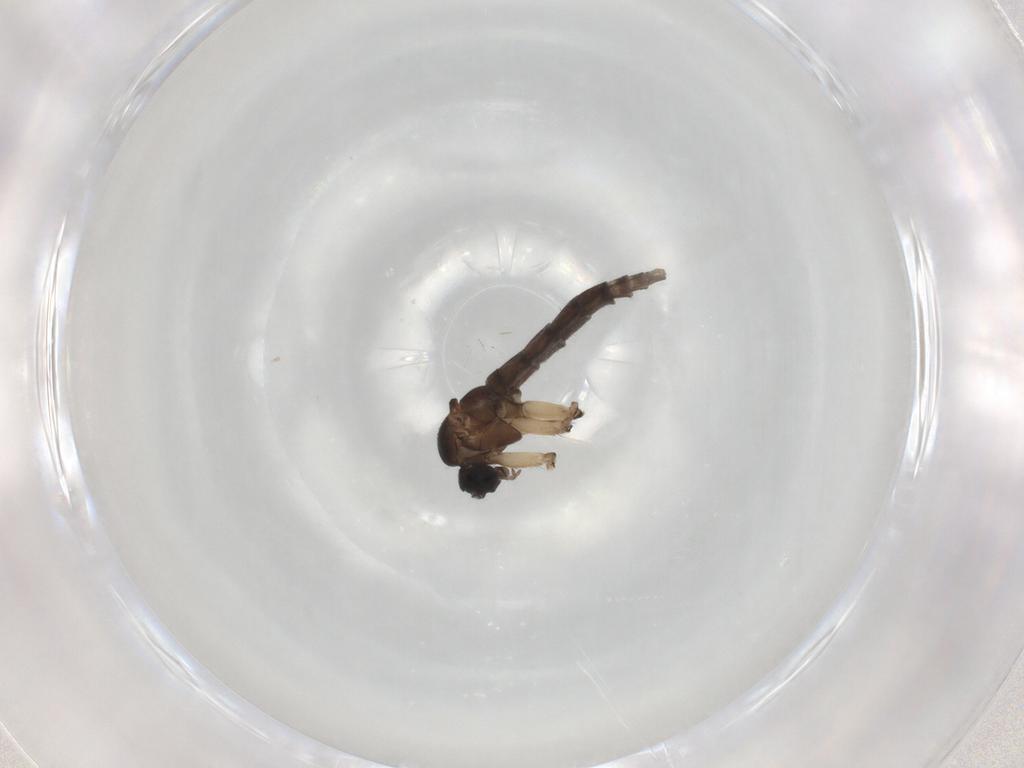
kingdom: Animalia
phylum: Arthropoda
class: Insecta
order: Diptera
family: Sciaridae
